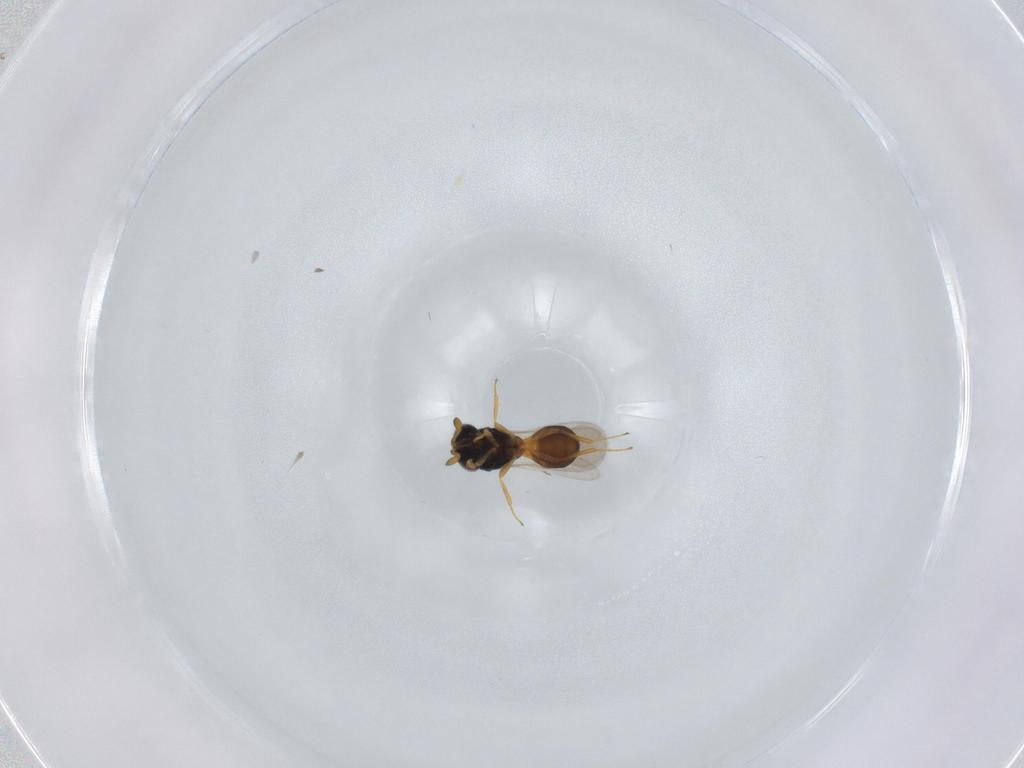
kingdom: Animalia
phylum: Arthropoda
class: Insecta
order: Hymenoptera
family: Scelionidae
